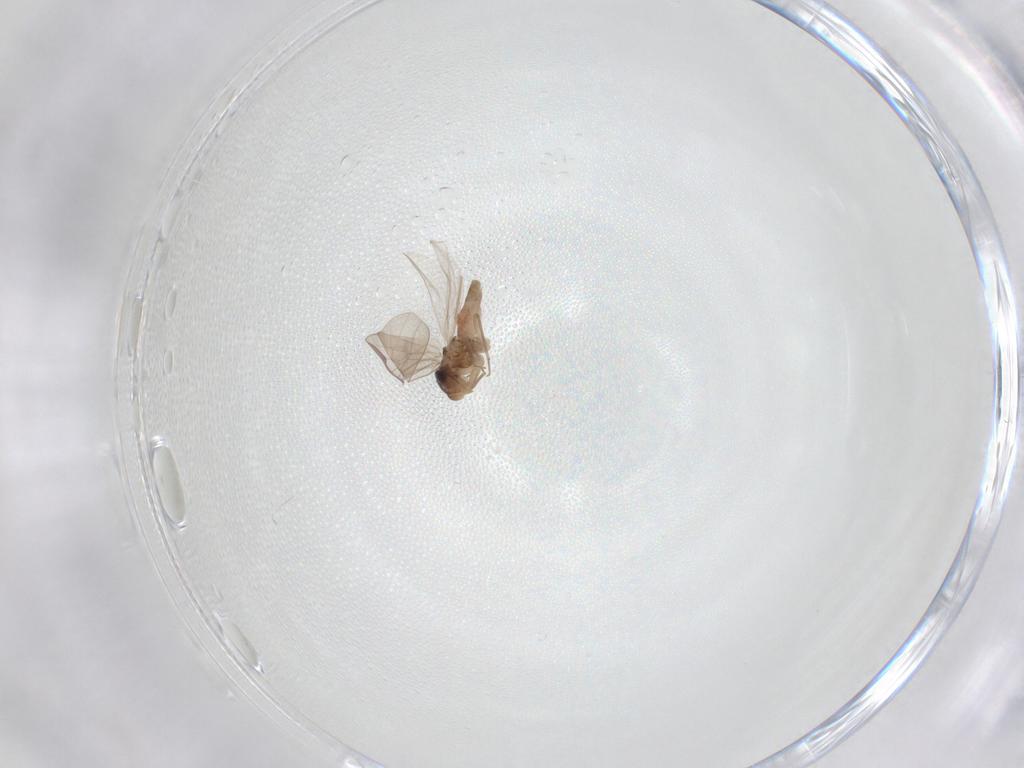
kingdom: Animalia
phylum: Arthropoda
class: Insecta
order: Psocodea
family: Lepidopsocidae
